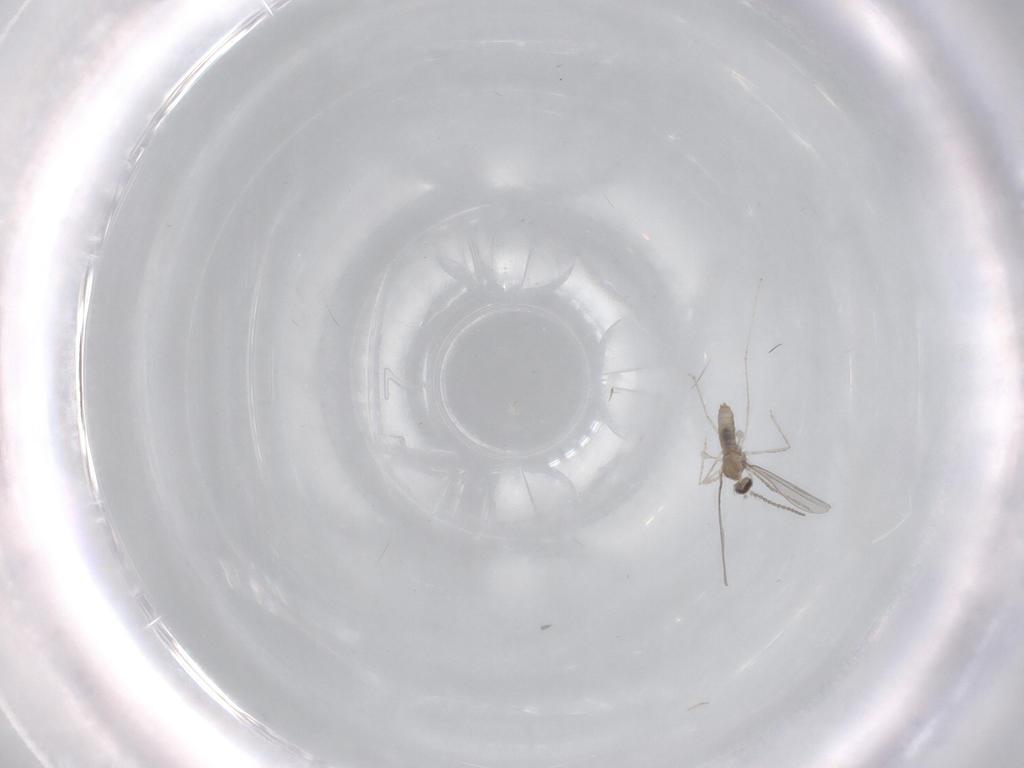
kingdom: Animalia
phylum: Arthropoda
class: Insecta
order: Diptera
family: Cecidomyiidae
